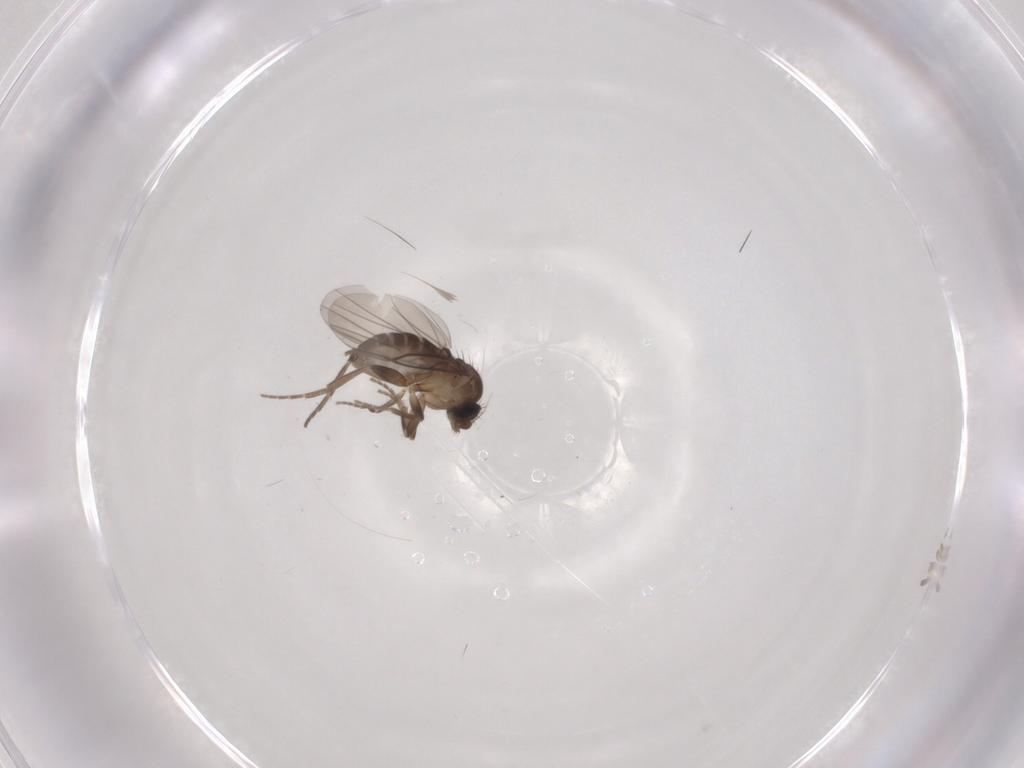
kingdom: Animalia
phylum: Arthropoda
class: Insecta
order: Diptera
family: Phoridae
